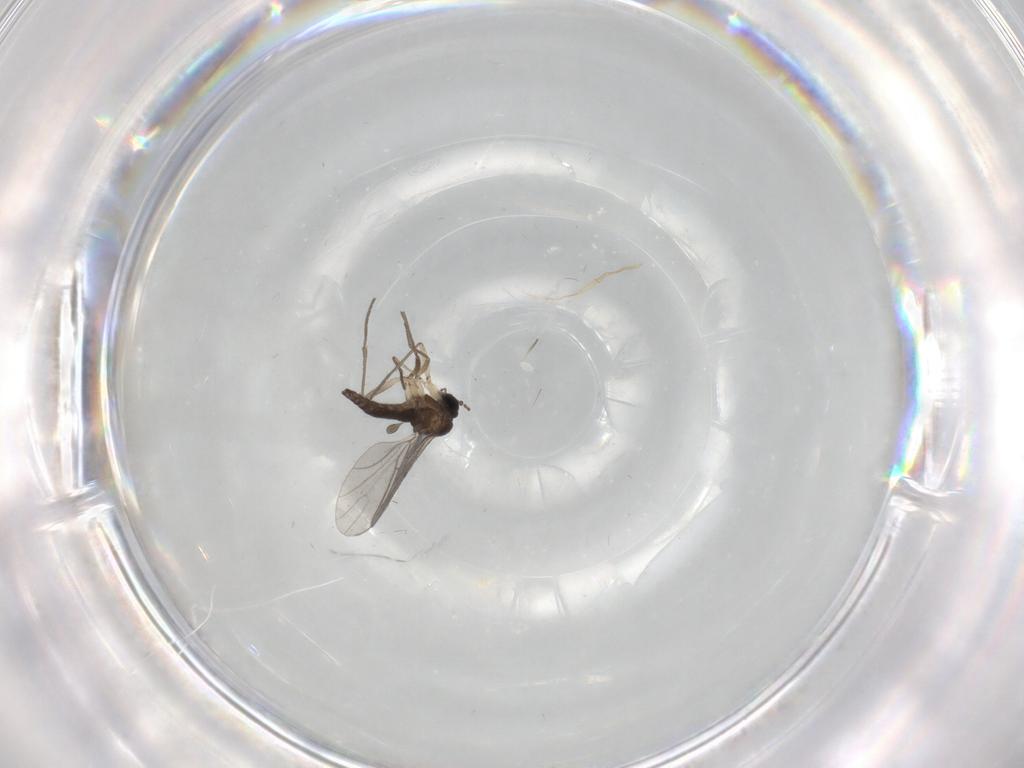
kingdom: Animalia
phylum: Arthropoda
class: Insecta
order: Diptera
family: Sciaridae
